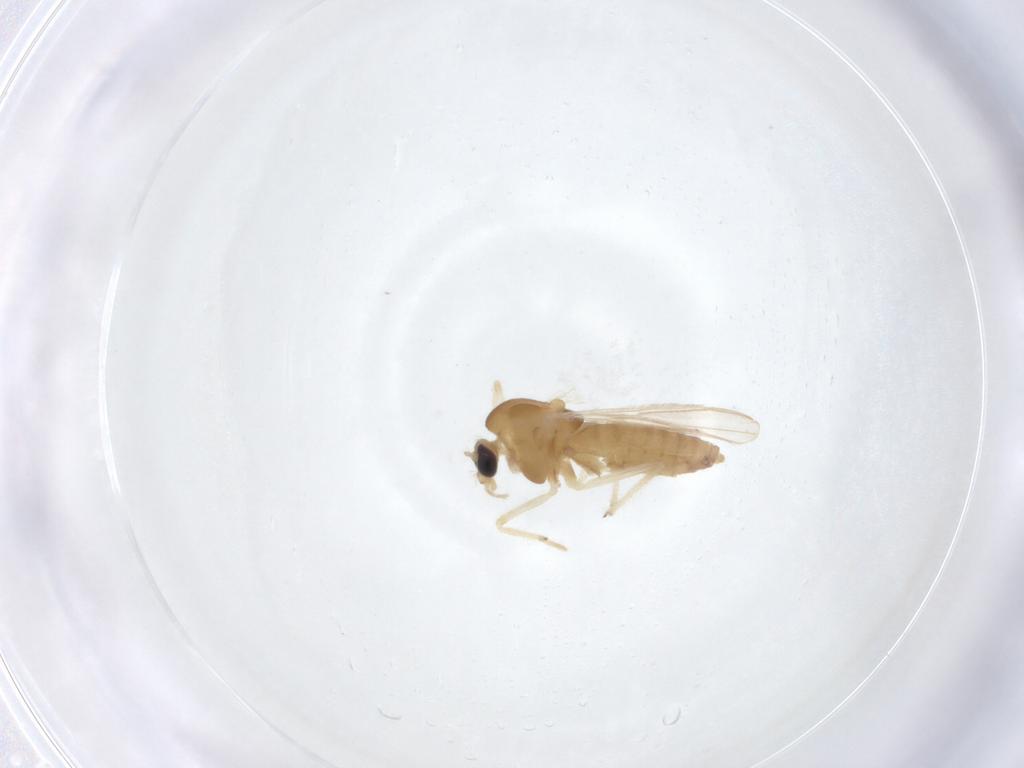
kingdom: Animalia
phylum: Arthropoda
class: Insecta
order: Diptera
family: Chironomidae
